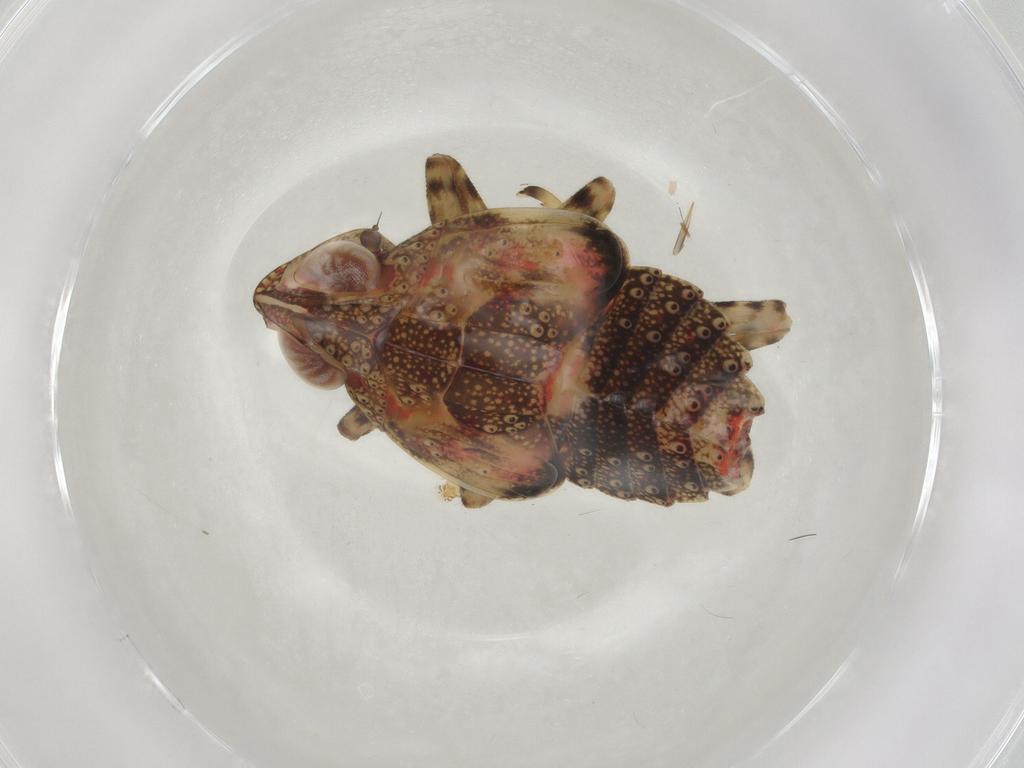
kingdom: Animalia
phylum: Arthropoda
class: Insecta
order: Hemiptera
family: Tropiduchidae
